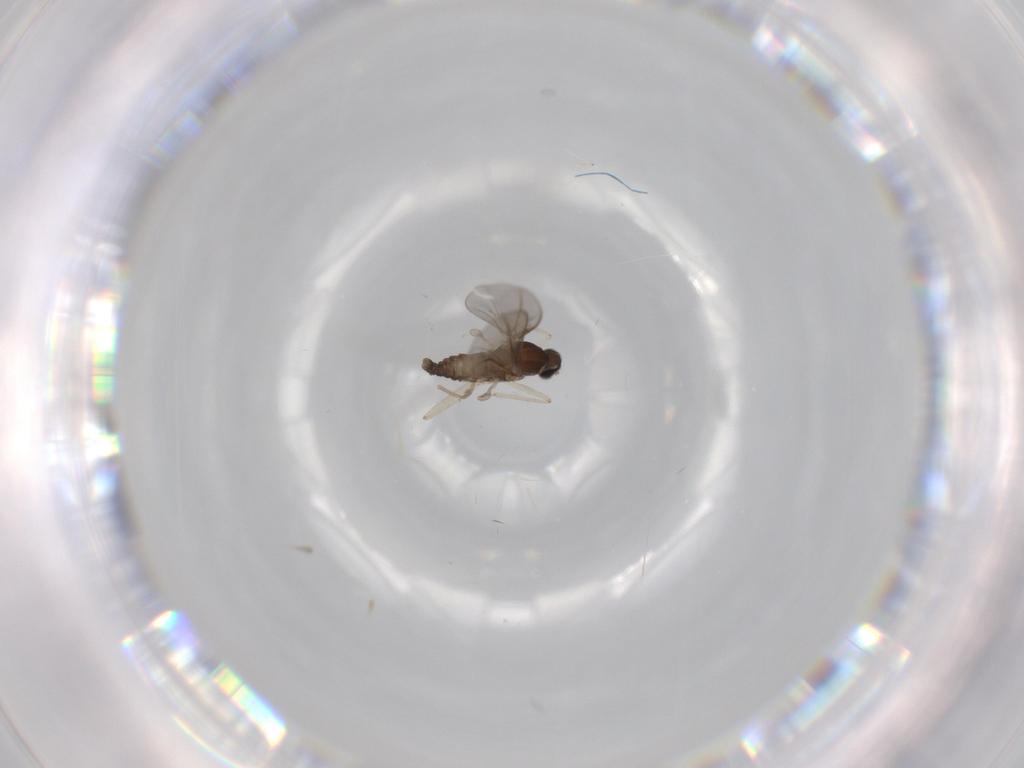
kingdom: Animalia
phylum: Arthropoda
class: Insecta
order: Diptera
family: Cecidomyiidae
